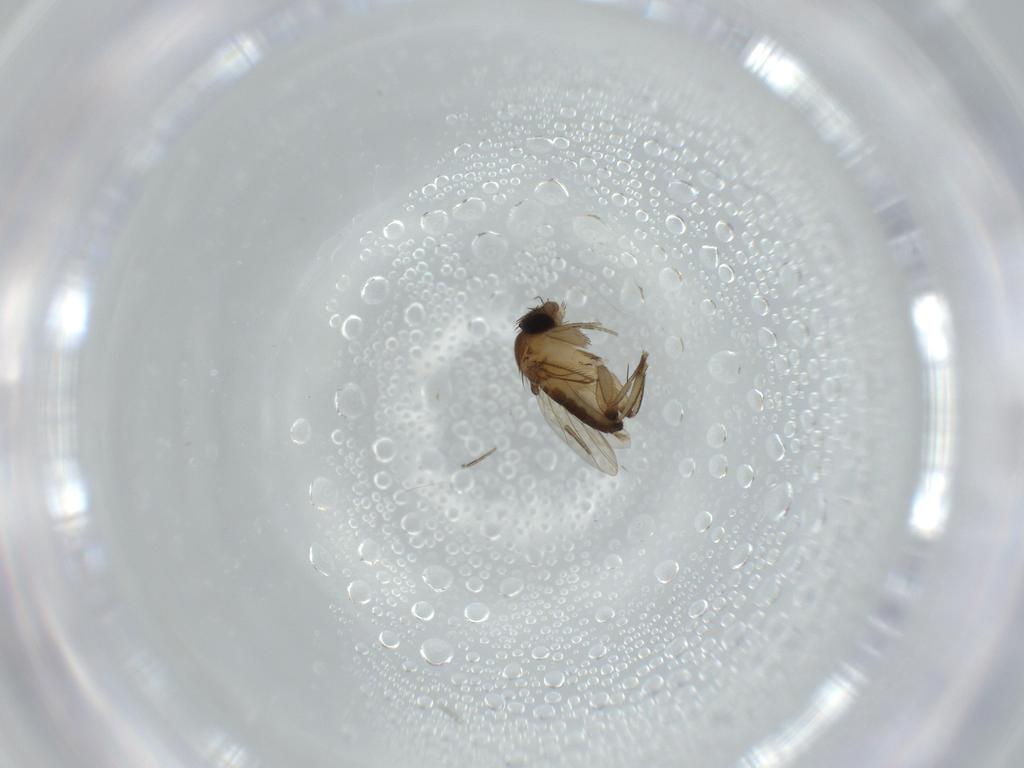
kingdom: Animalia
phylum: Arthropoda
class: Insecta
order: Diptera
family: Phoridae
